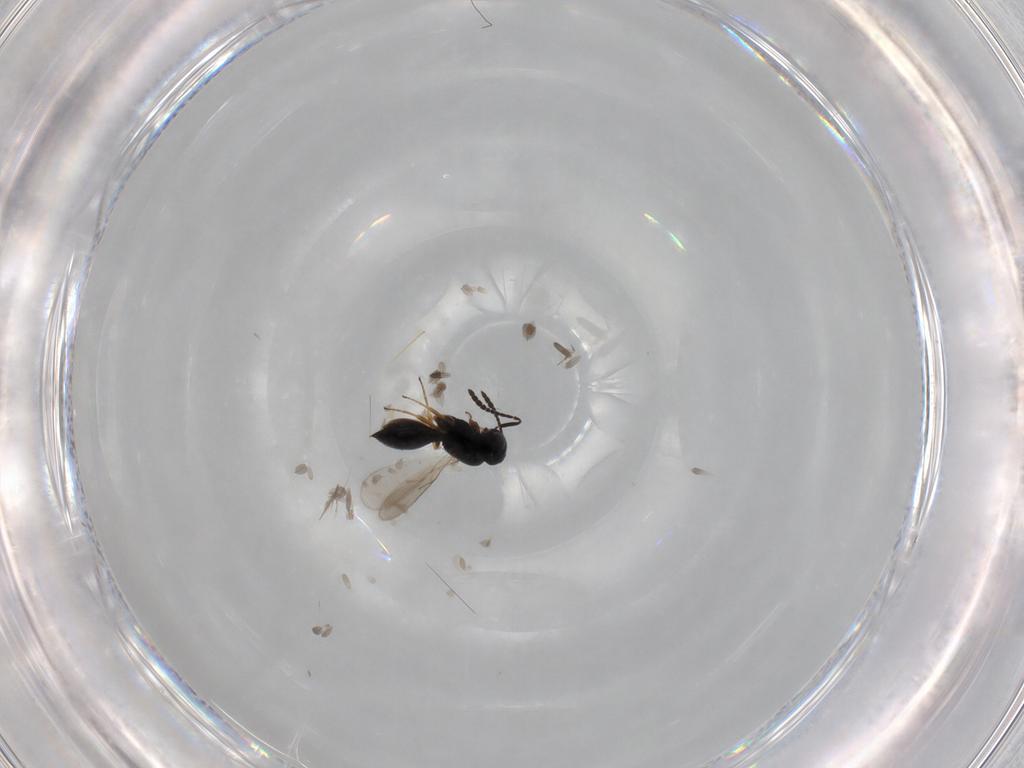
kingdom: Animalia
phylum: Arthropoda
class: Insecta
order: Hymenoptera
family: Scelionidae
